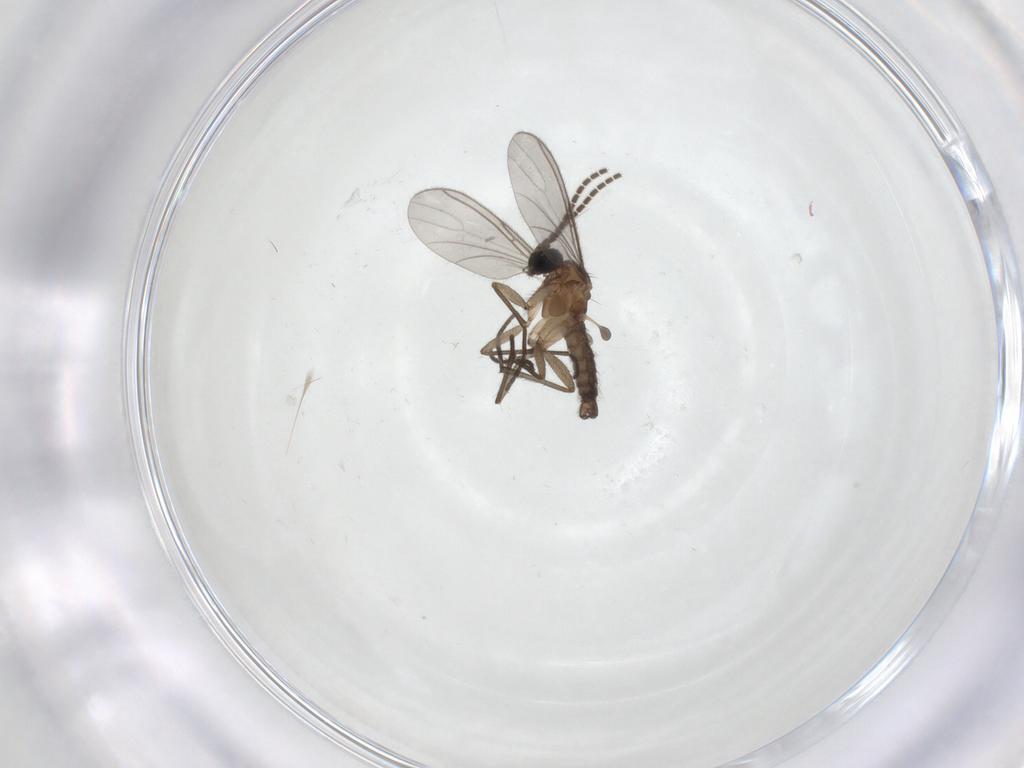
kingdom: Animalia
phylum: Arthropoda
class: Insecta
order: Diptera
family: Sciaridae
